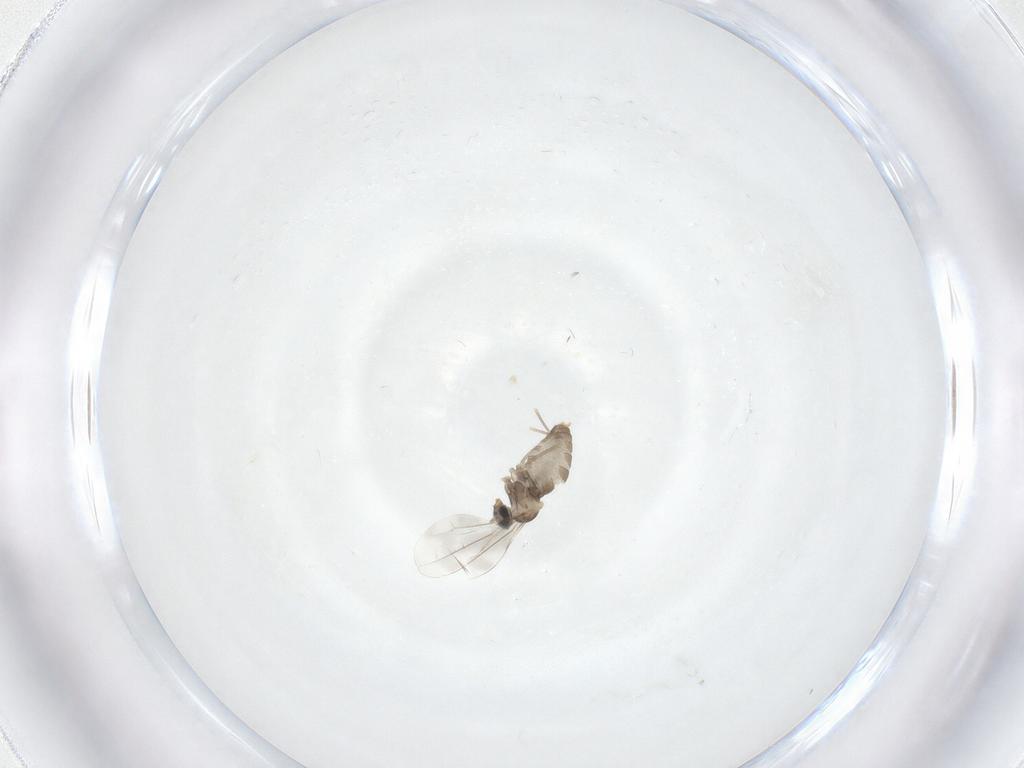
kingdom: Animalia
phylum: Arthropoda
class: Insecta
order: Diptera
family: Cecidomyiidae
